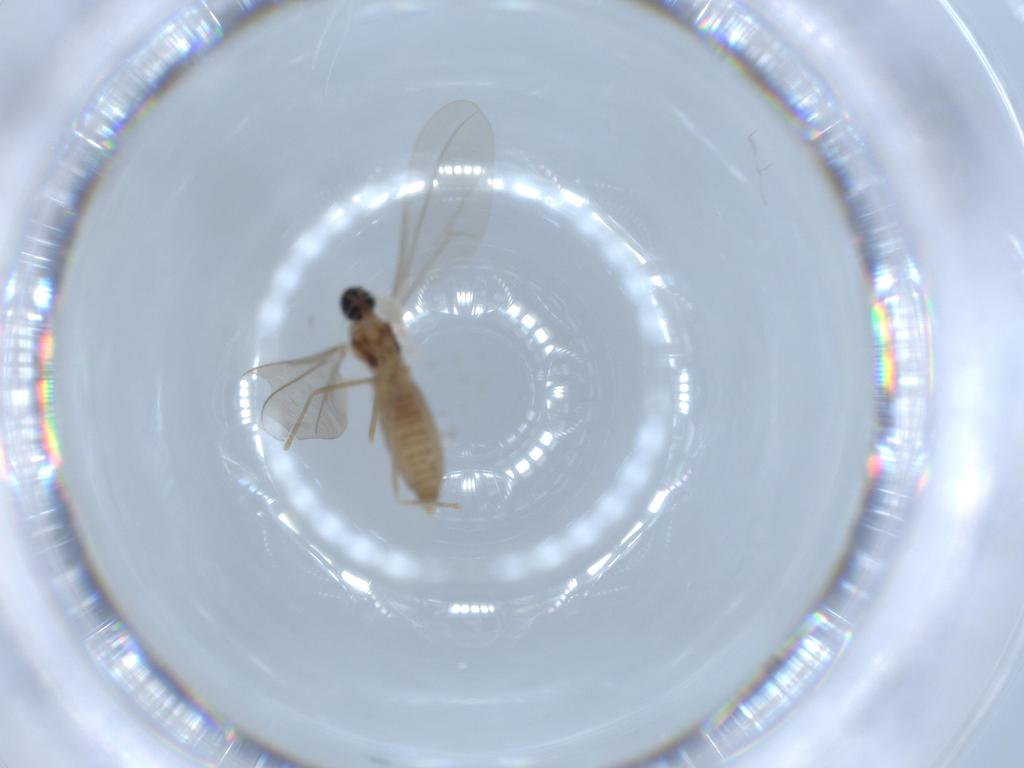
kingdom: Animalia
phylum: Arthropoda
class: Insecta
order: Diptera
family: Cecidomyiidae
